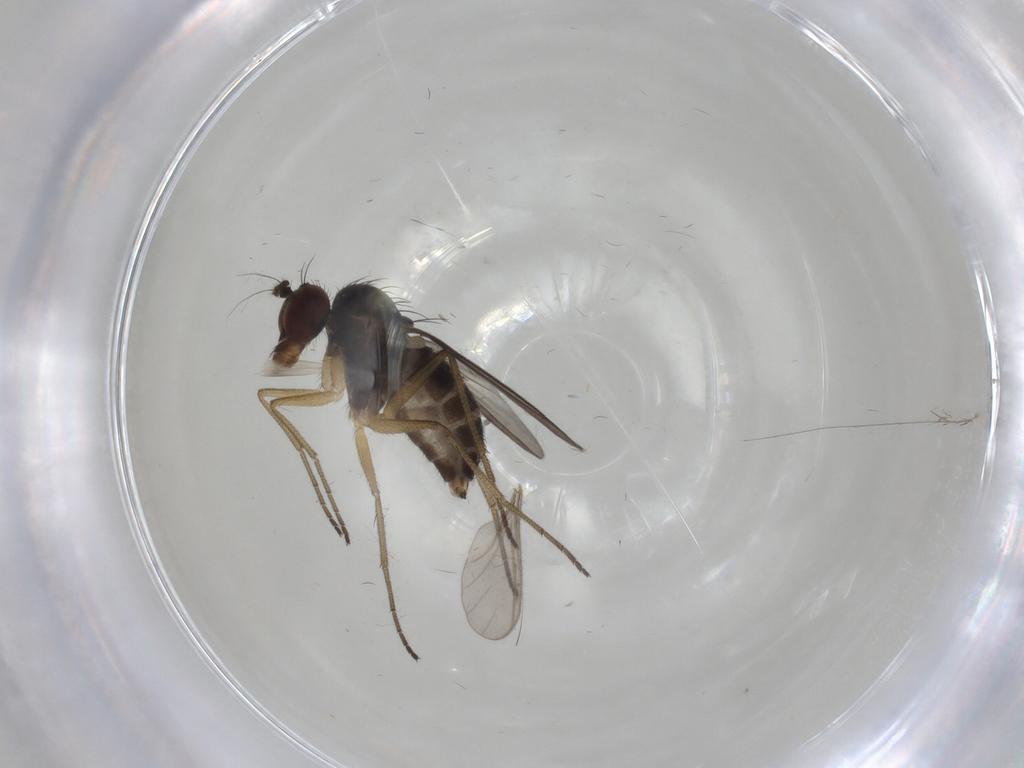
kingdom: Animalia
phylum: Arthropoda
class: Insecta
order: Diptera
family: Dolichopodidae
